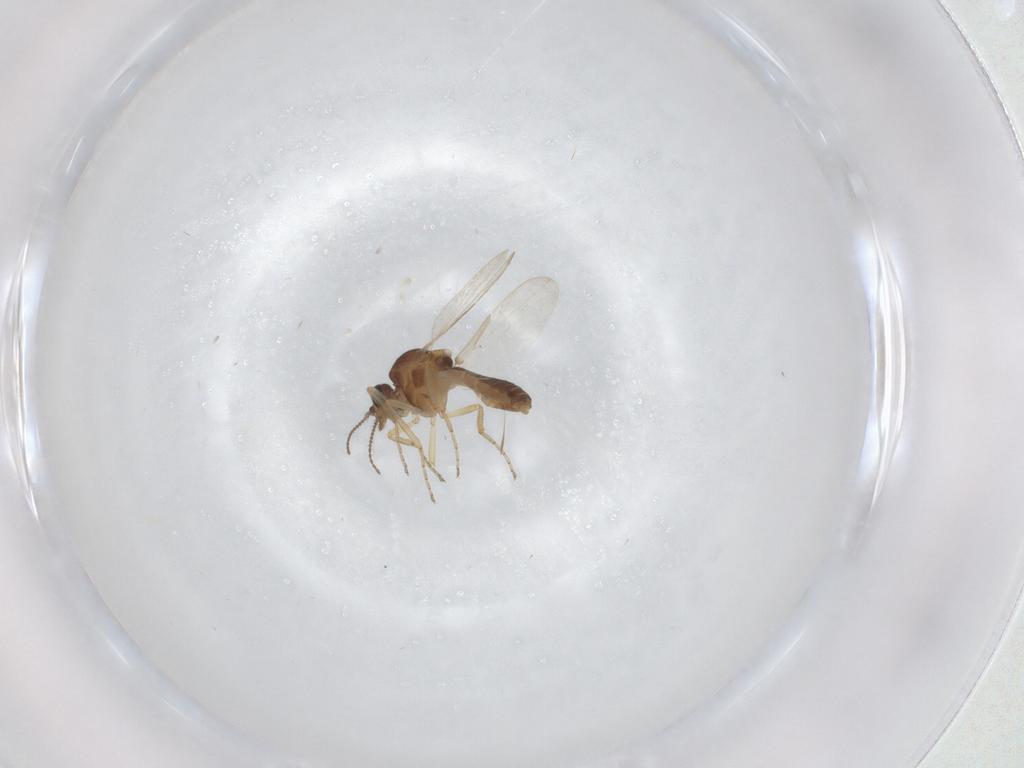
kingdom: Animalia
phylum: Arthropoda
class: Insecta
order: Diptera
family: Ceratopogonidae
